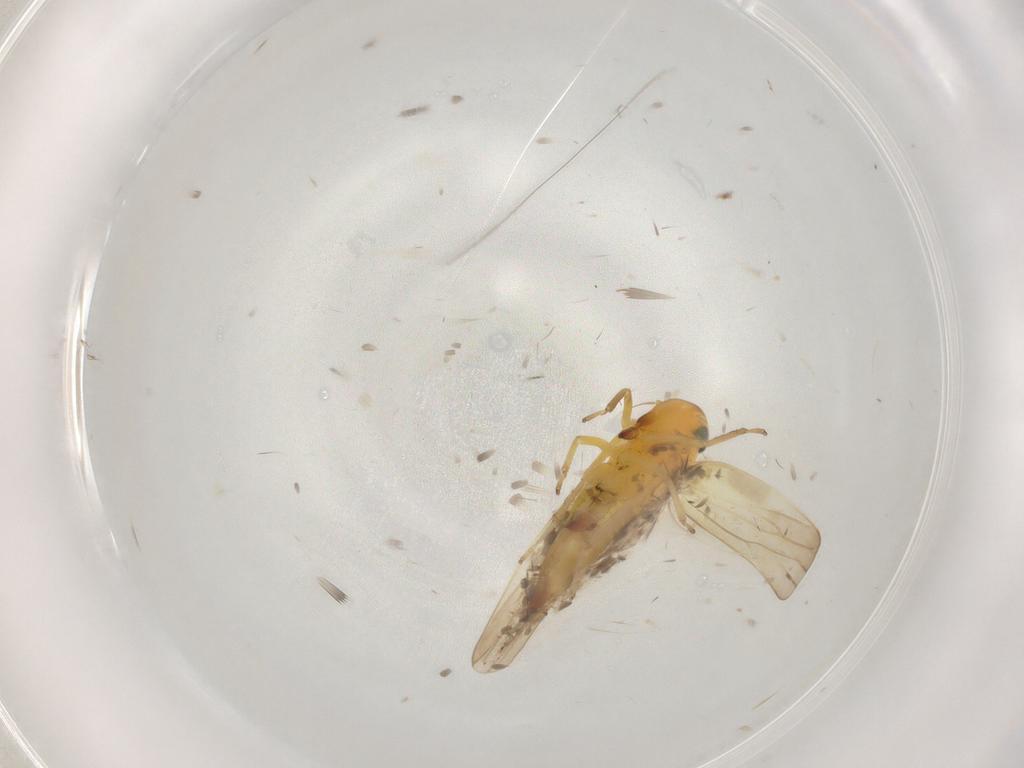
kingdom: Animalia
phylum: Arthropoda
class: Insecta
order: Hemiptera
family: Cicadellidae
